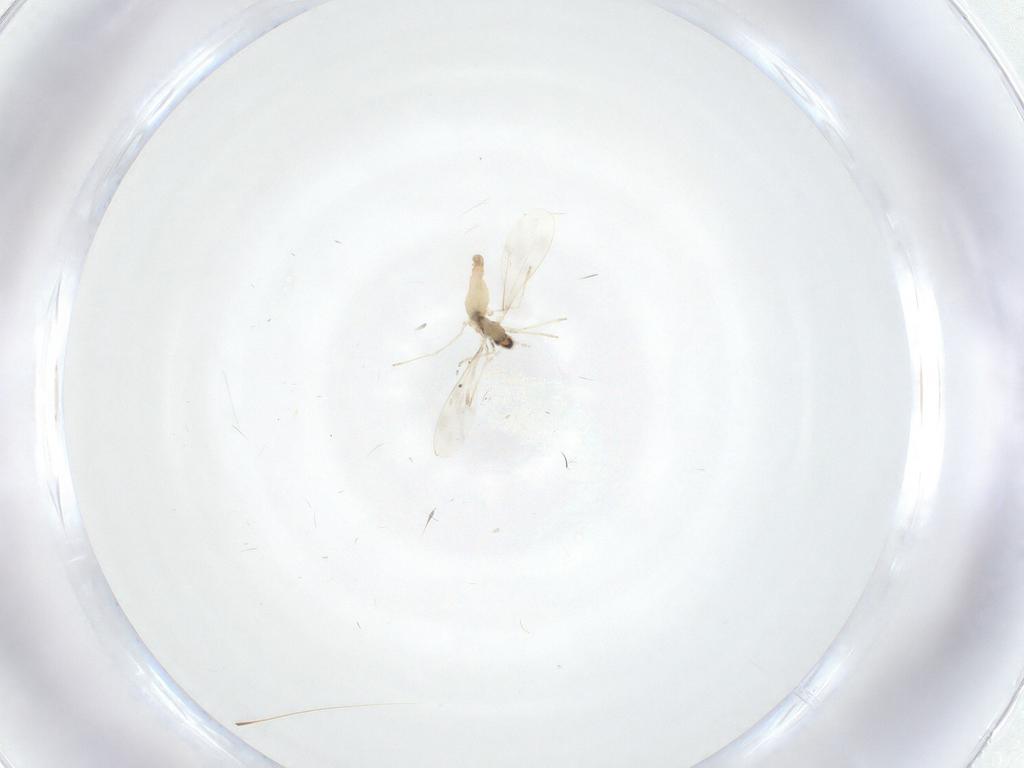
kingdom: Animalia
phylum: Arthropoda
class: Insecta
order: Diptera
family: Cecidomyiidae
